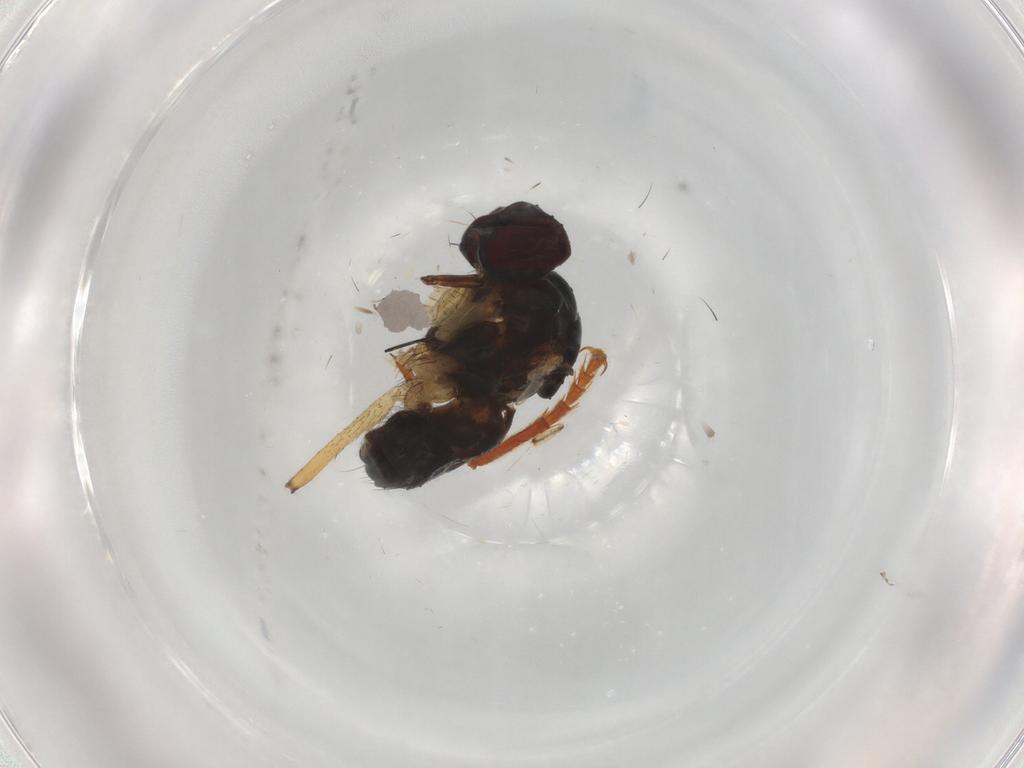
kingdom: Animalia
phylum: Arthropoda
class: Insecta
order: Diptera
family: Muscidae
